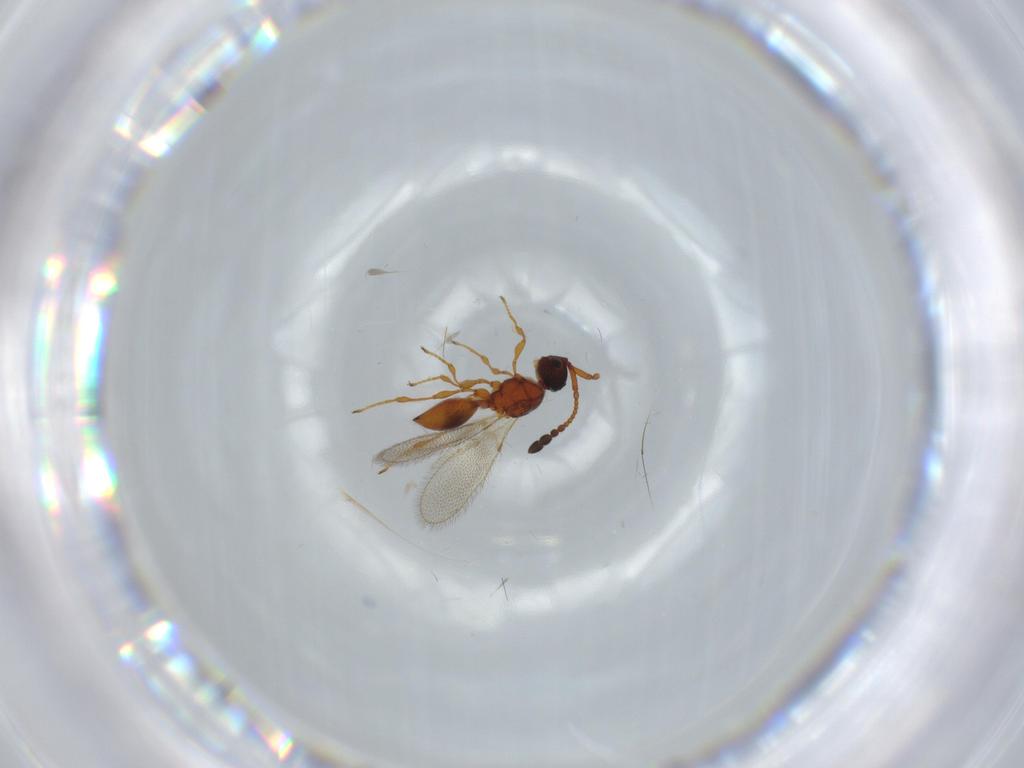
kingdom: Animalia
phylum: Arthropoda
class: Insecta
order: Hymenoptera
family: Diapriidae
